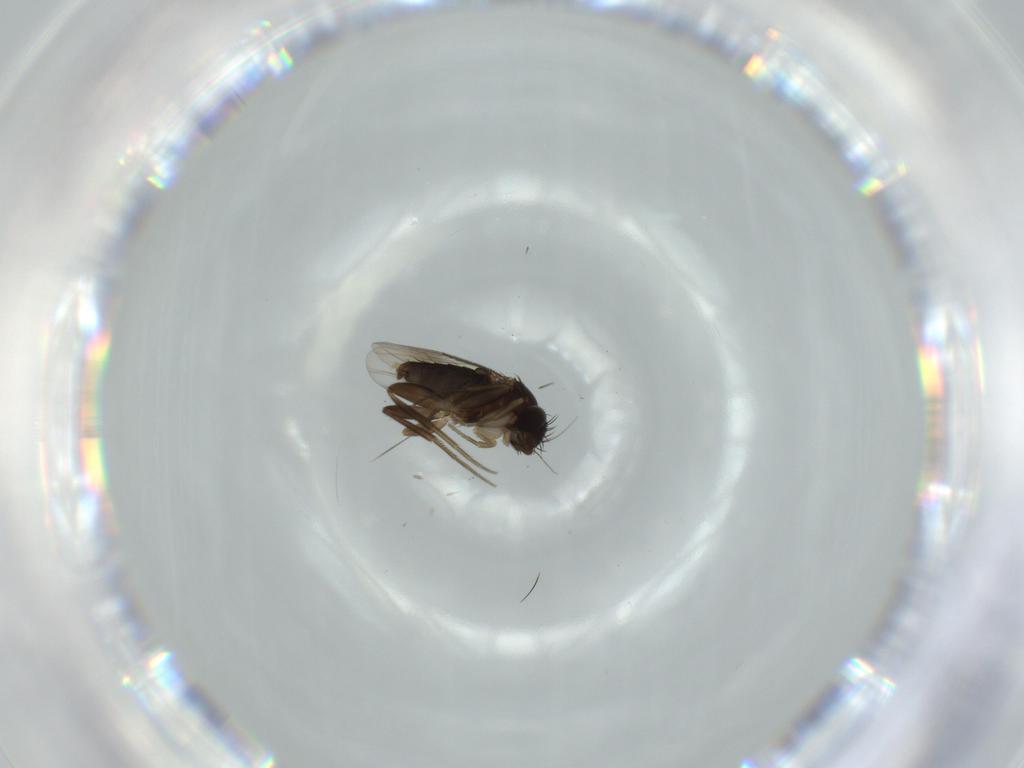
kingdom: Animalia
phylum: Arthropoda
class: Insecta
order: Diptera
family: Phoridae
